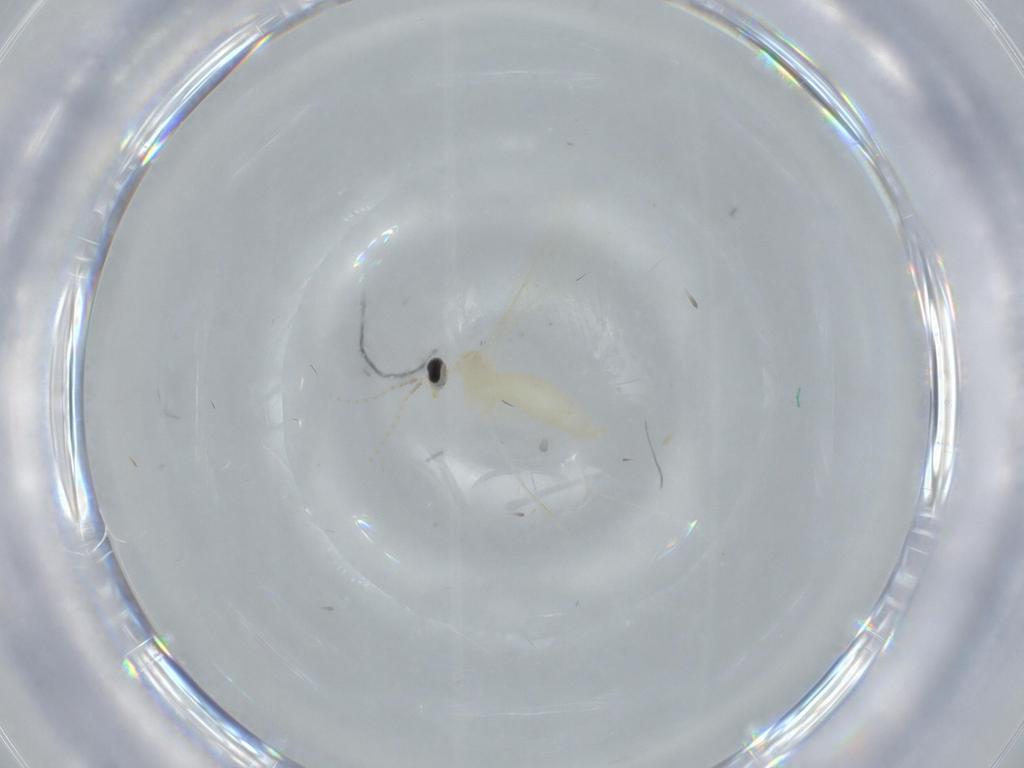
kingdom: Animalia
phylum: Arthropoda
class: Insecta
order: Diptera
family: Cecidomyiidae
